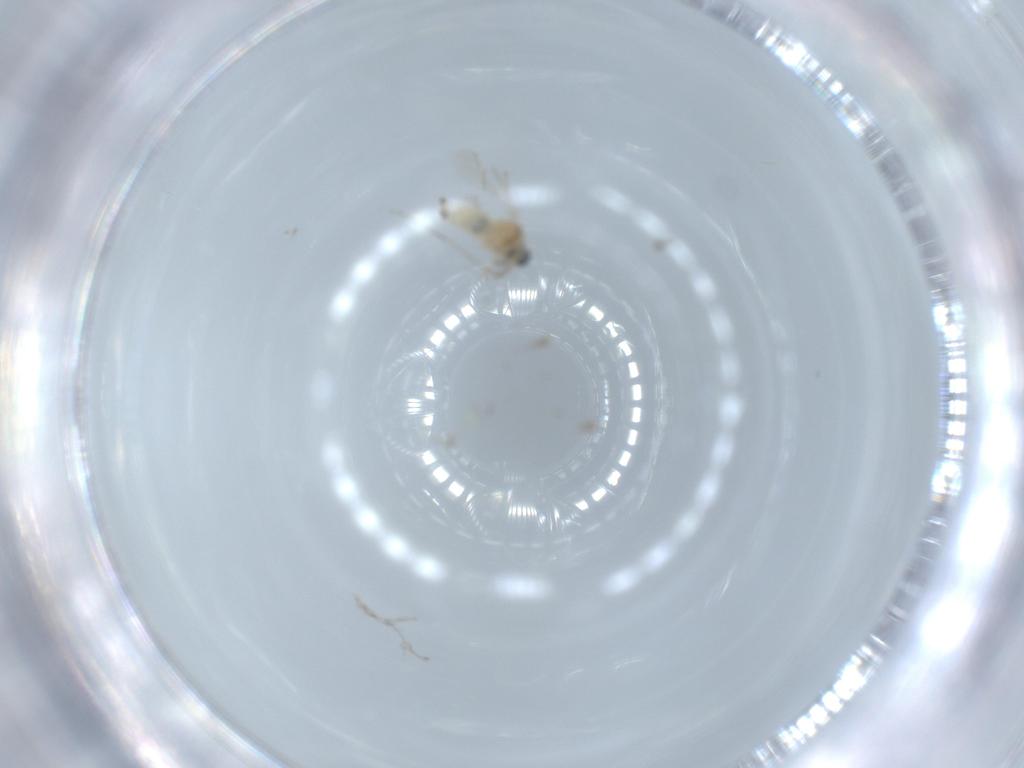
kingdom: Animalia
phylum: Arthropoda
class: Insecta
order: Diptera
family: Cecidomyiidae
